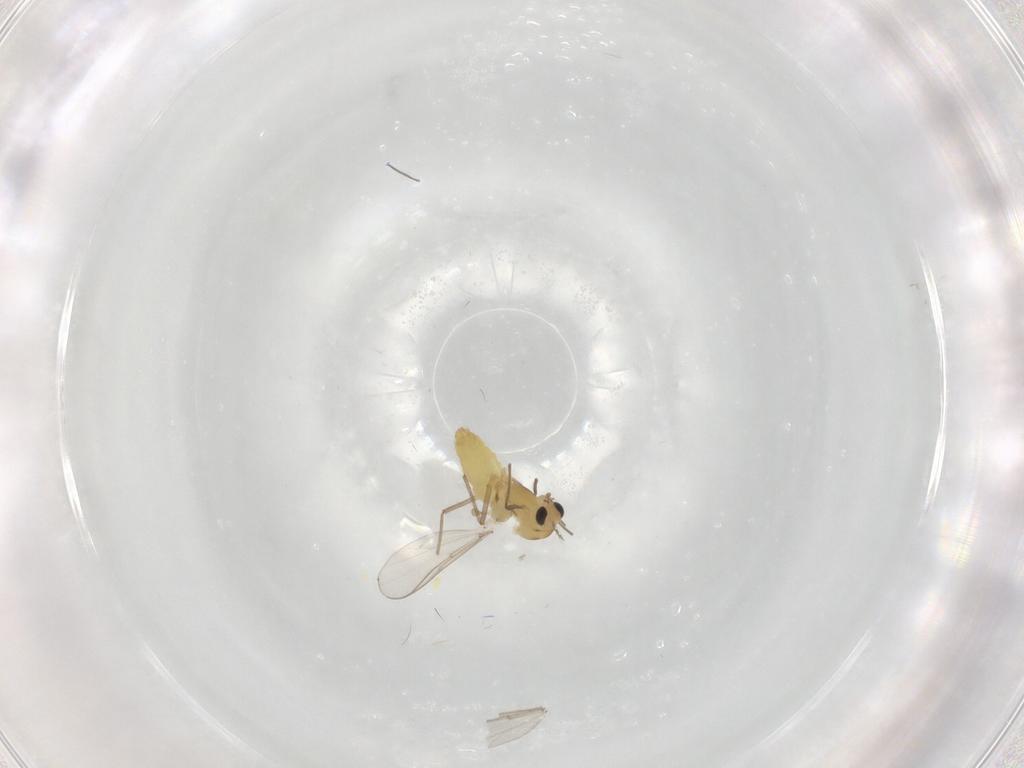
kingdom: Animalia
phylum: Arthropoda
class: Insecta
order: Diptera
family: Chironomidae
